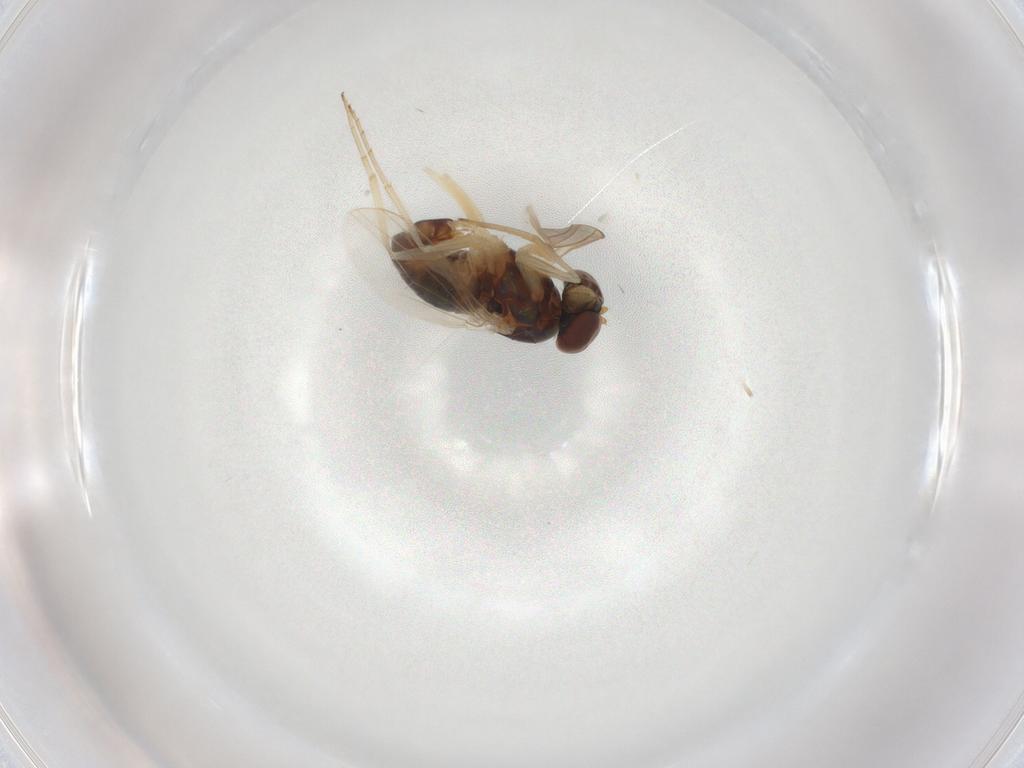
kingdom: Animalia
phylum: Arthropoda
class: Insecta
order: Diptera
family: Dolichopodidae
